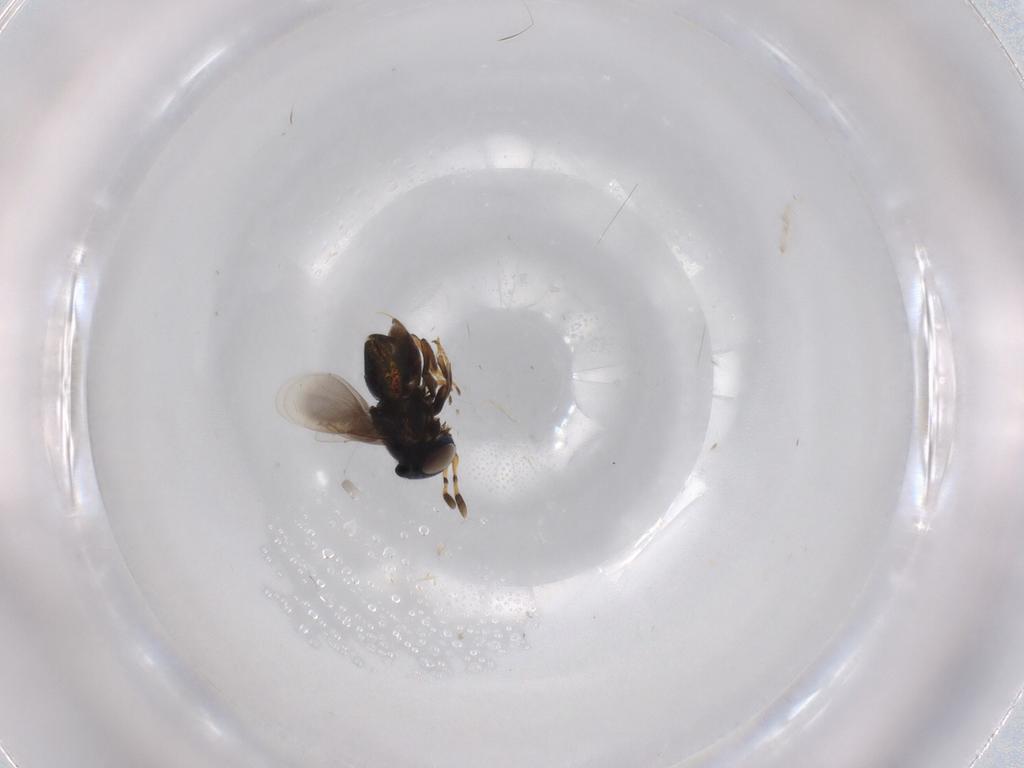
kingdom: Animalia
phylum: Arthropoda
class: Insecta
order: Hymenoptera
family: Encyrtidae
